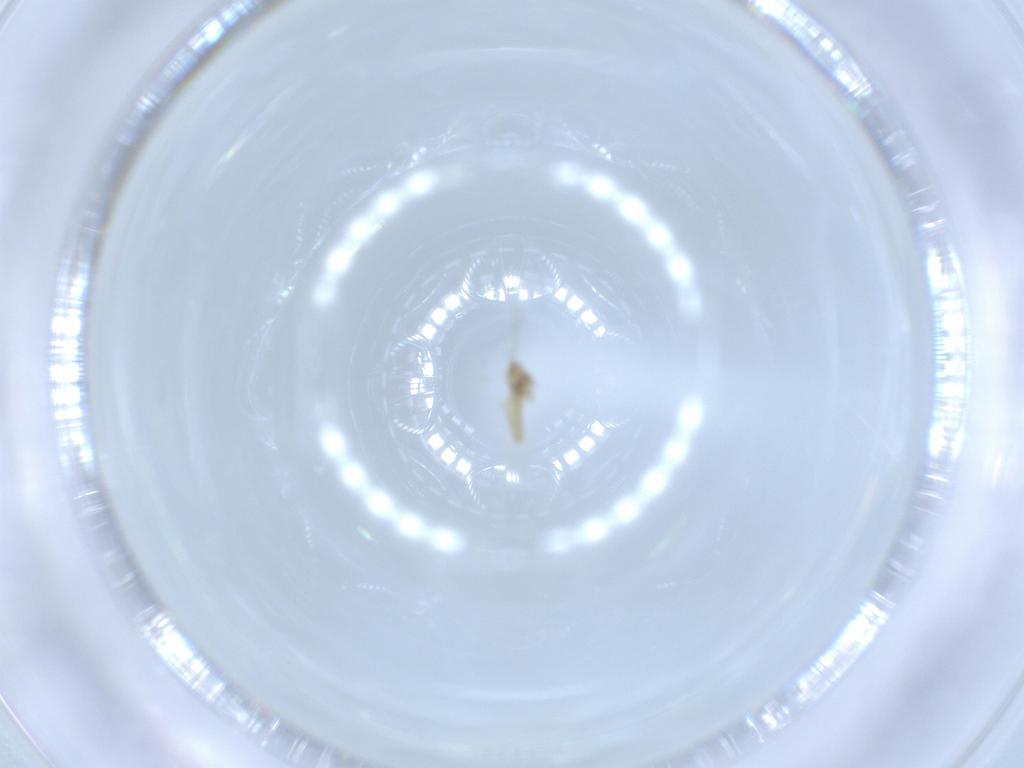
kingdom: Animalia
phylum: Arthropoda
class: Insecta
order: Diptera
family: Cecidomyiidae
